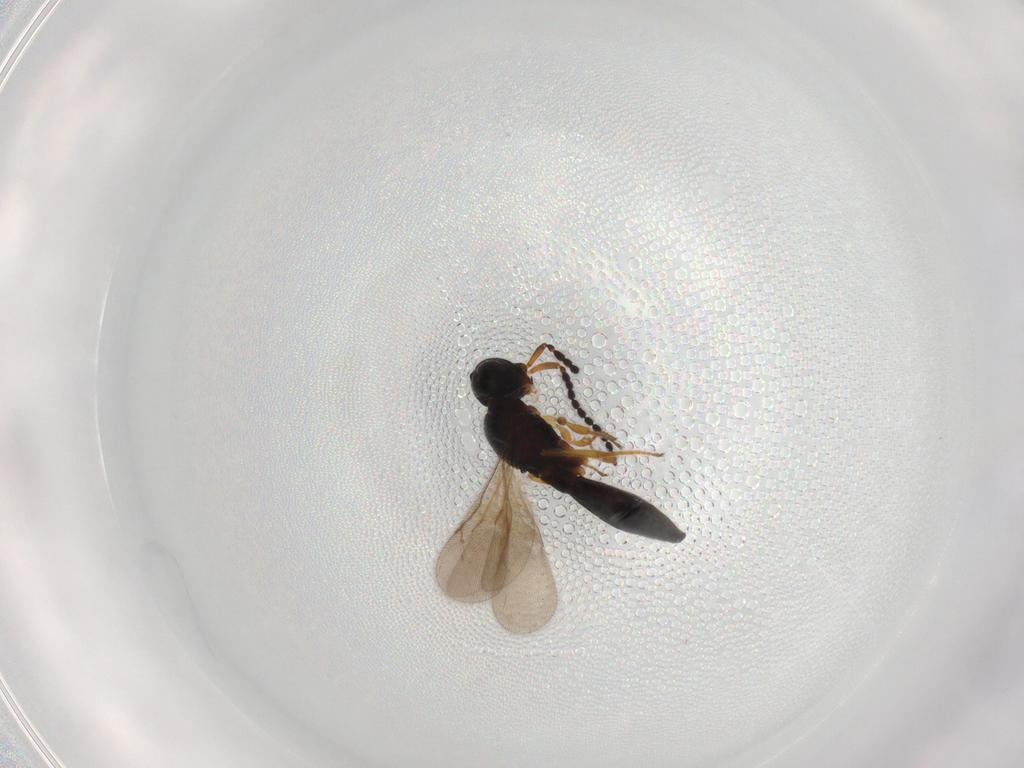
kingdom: Animalia
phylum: Arthropoda
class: Insecta
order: Hymenoptera
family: Scelionidae
